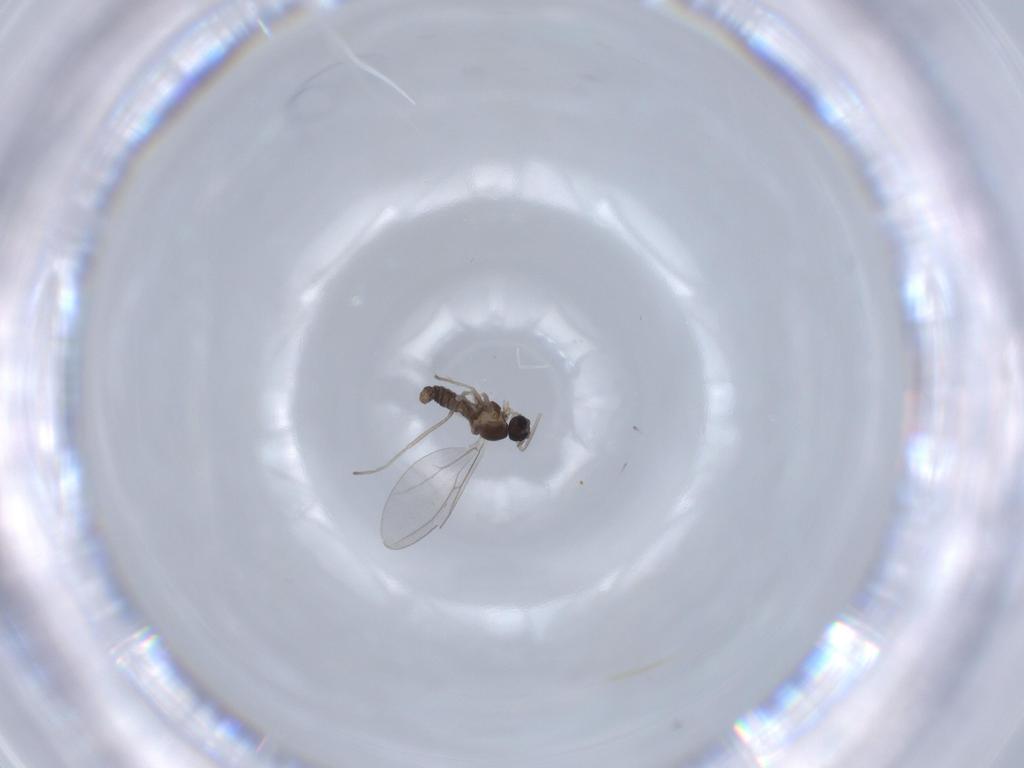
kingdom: Animalia
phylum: Arthropoda
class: Insecta
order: Diptera
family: Cecidomyiidae
